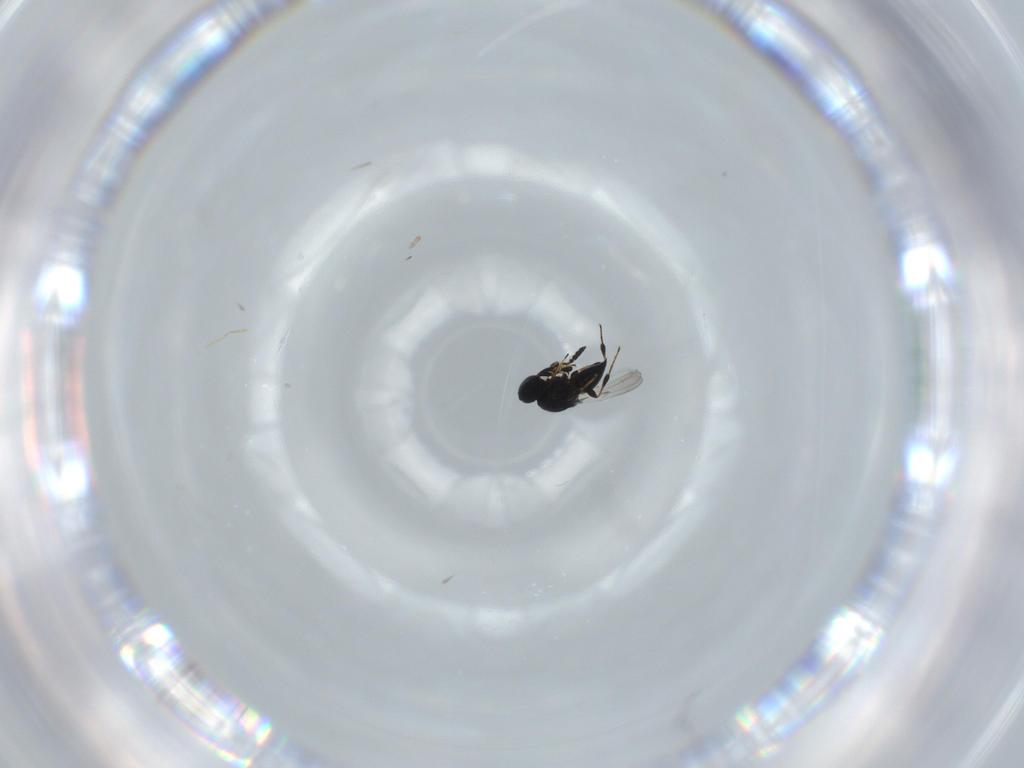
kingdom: Animalia
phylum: Arthropoda
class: Insecta
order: Hymenoptera
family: Platygastridae
